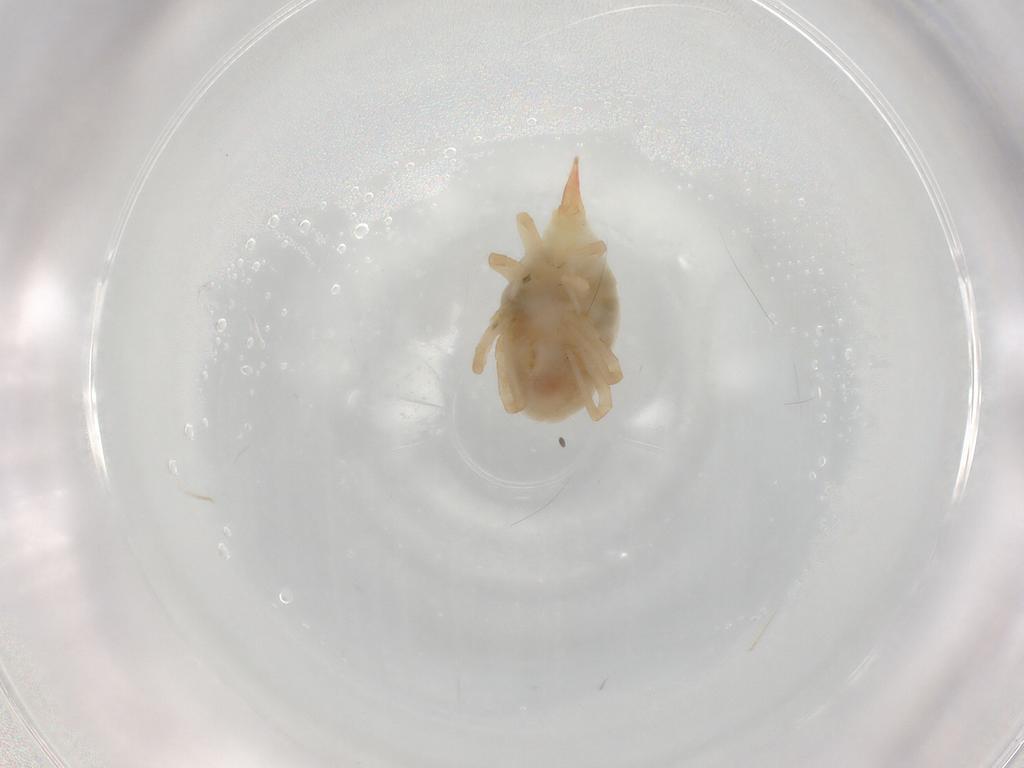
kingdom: Animalia
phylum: Arthropoda
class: Arachnida
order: Trombidiformes
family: Bdellidae
